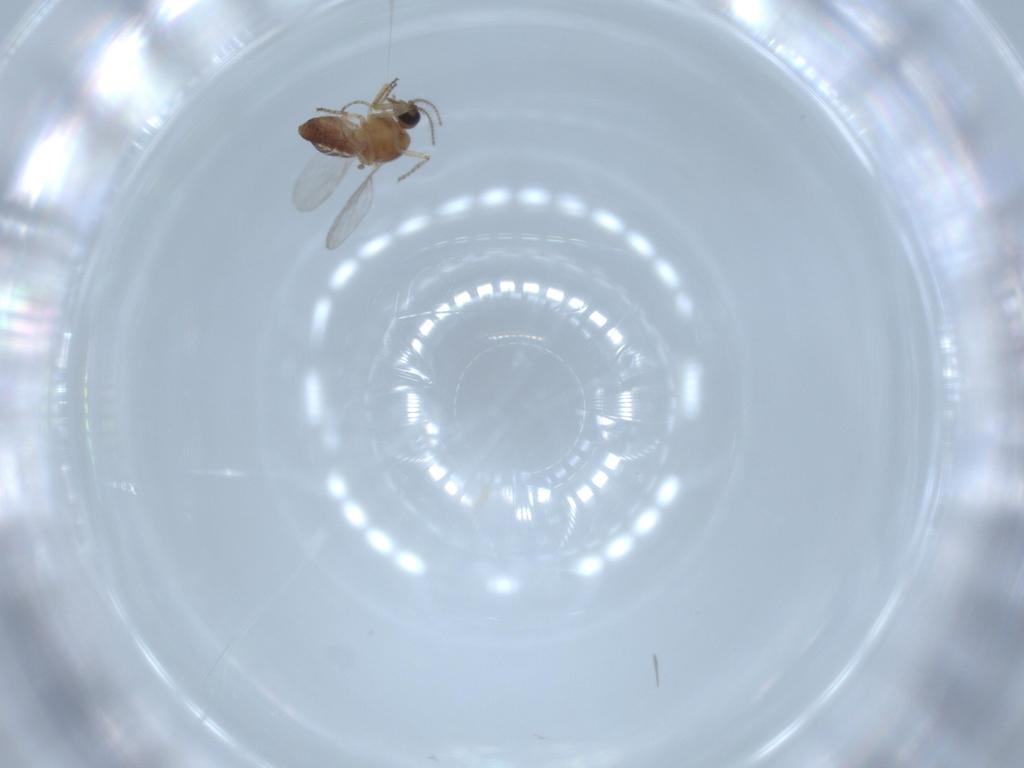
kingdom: Animalia
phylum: Arthropoda
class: Insecta
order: Diptera
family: Ceratopogonidae
